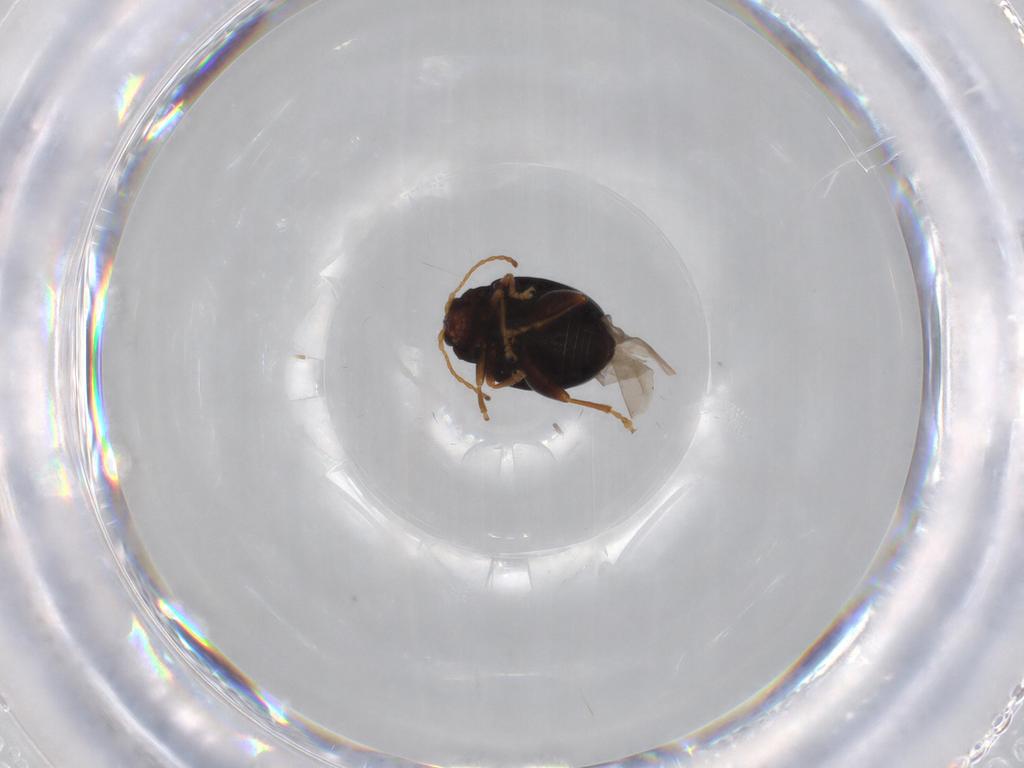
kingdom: Animalia
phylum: Arthropoda
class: Insecta
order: Coleoptera
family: Chrysomelidae
